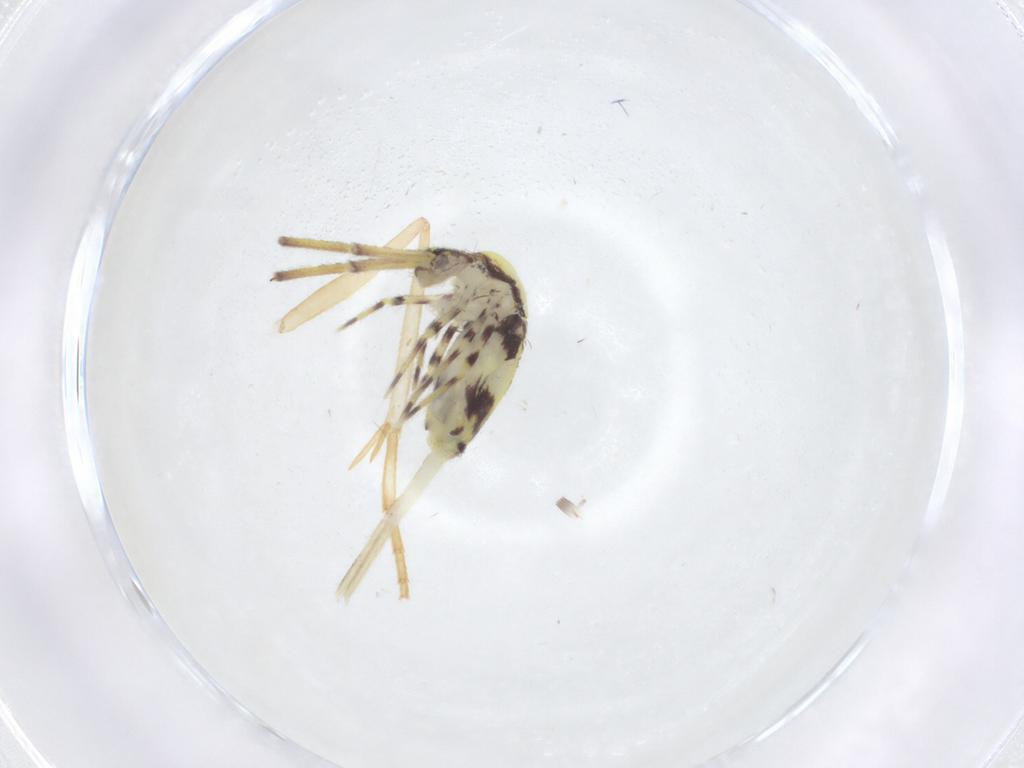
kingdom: Animalia
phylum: Arthropoda
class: Collembola
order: Entomobryomorpha
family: Entomobryidae
